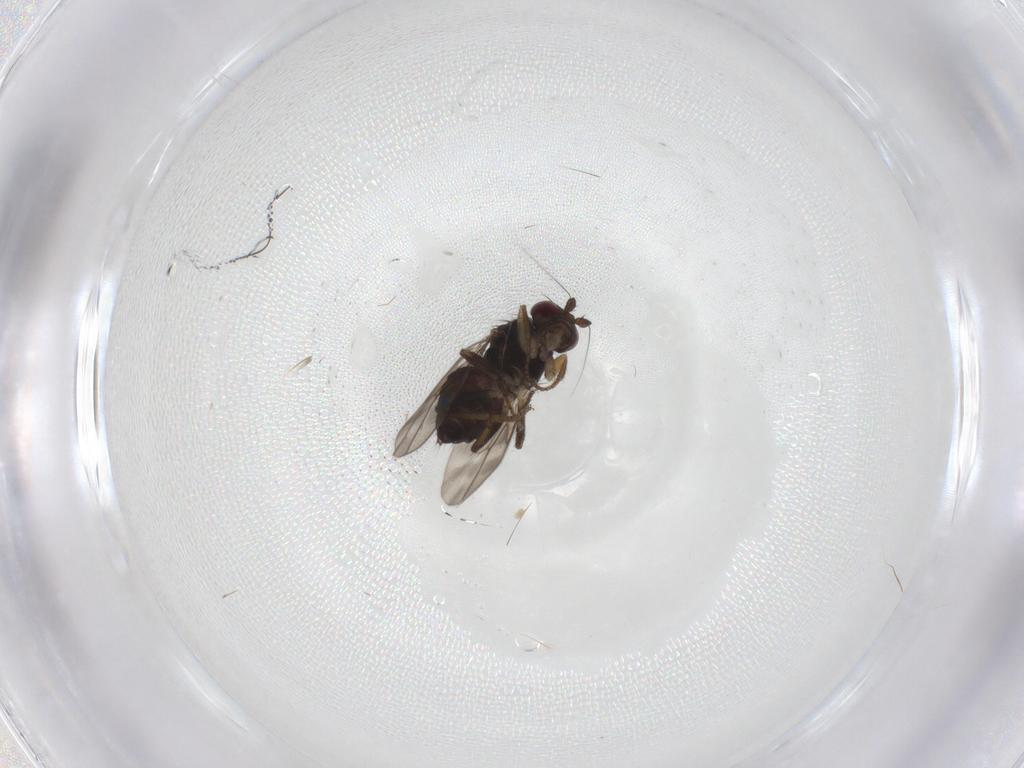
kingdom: Animalia
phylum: Arthropoda
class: Insecta
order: Diptera
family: Sphaeroceridae
